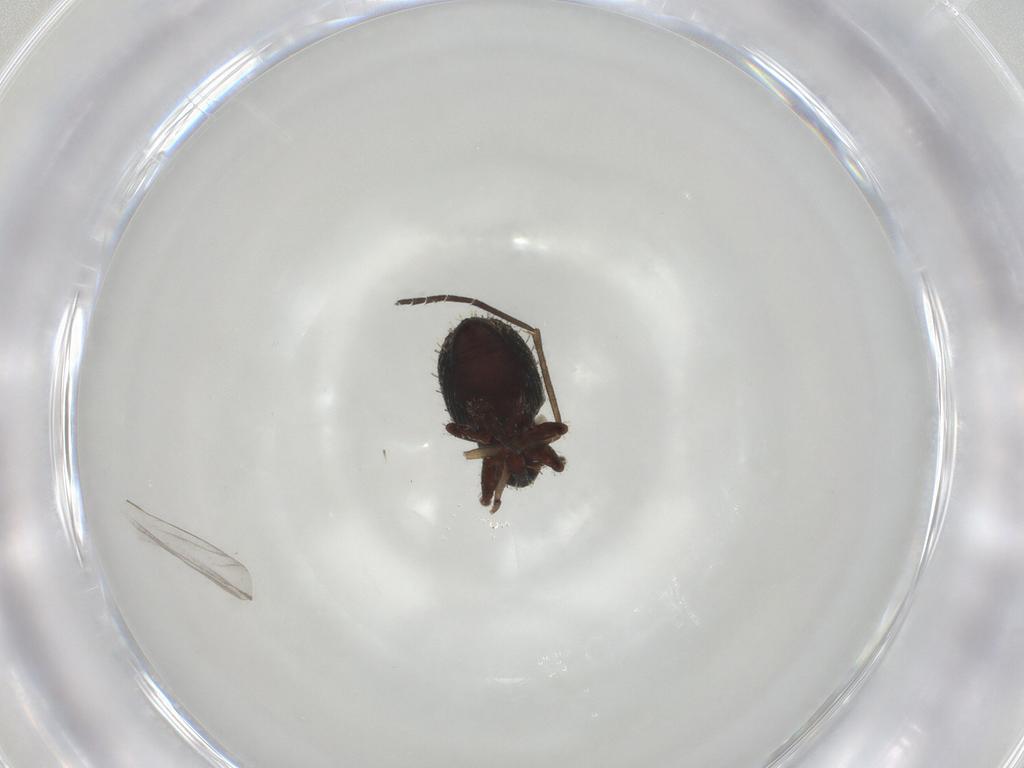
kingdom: Animalia
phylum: Arthropoda
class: Insecta
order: Coleoptera
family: Curculionidae
